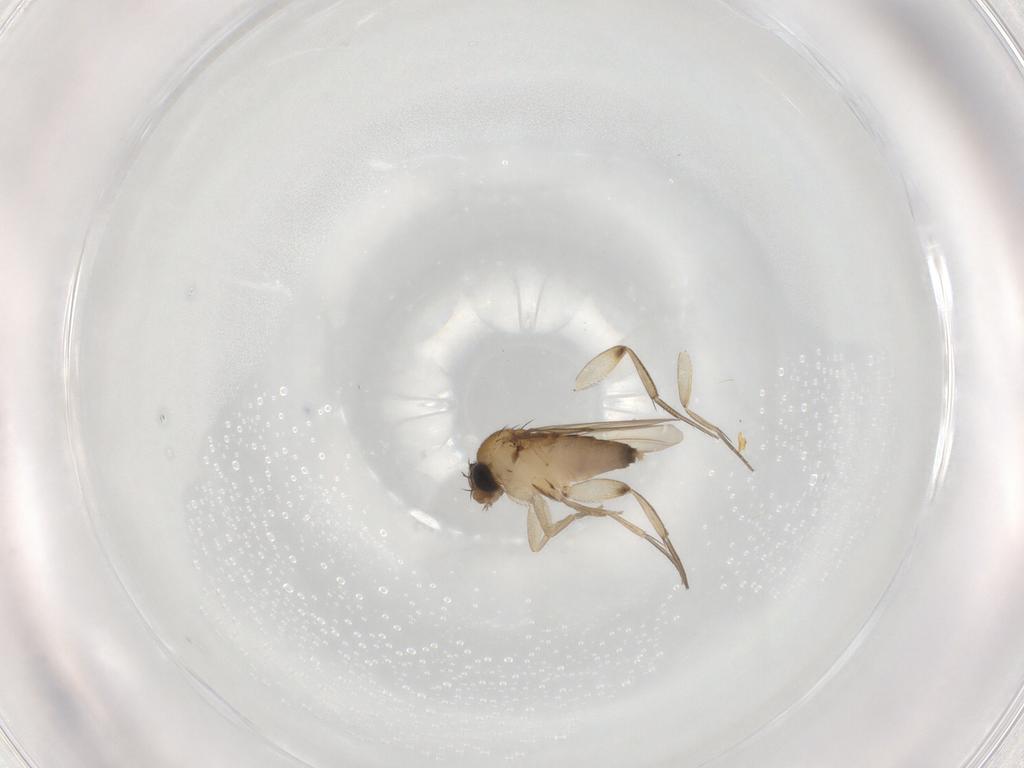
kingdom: Animalia
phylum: Arthropoda
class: Insecta
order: Diptera
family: Phoridae
